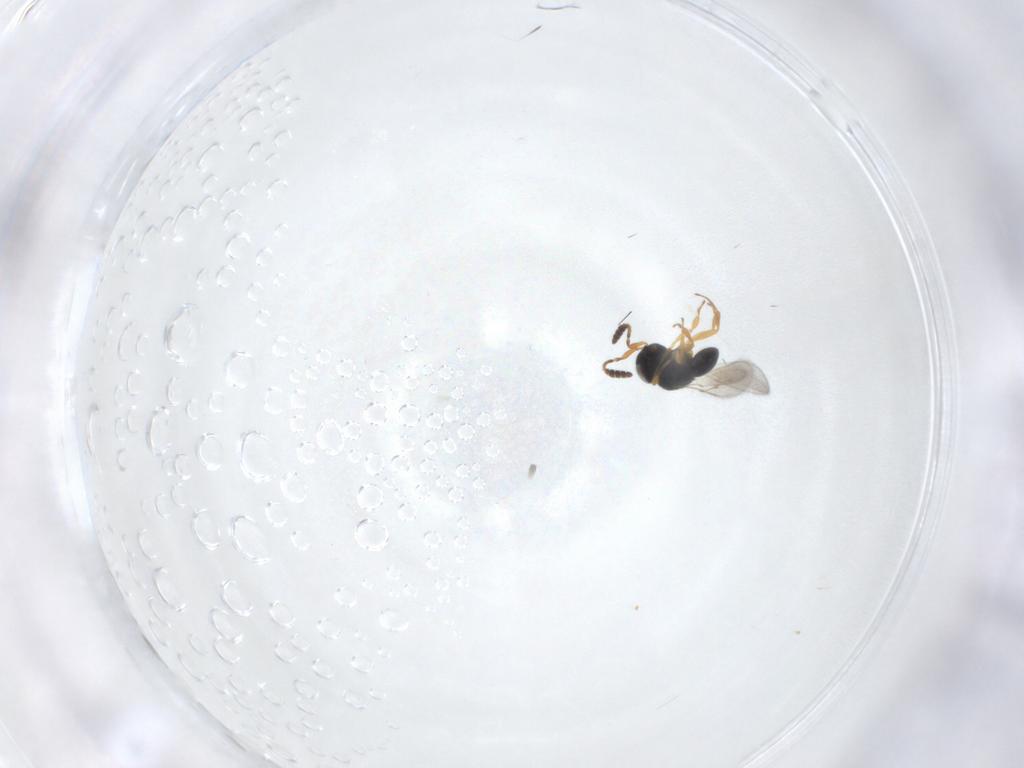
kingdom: Animalia
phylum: Arthropoda
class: Insecta
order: Hymenoptera
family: Scelionidae
